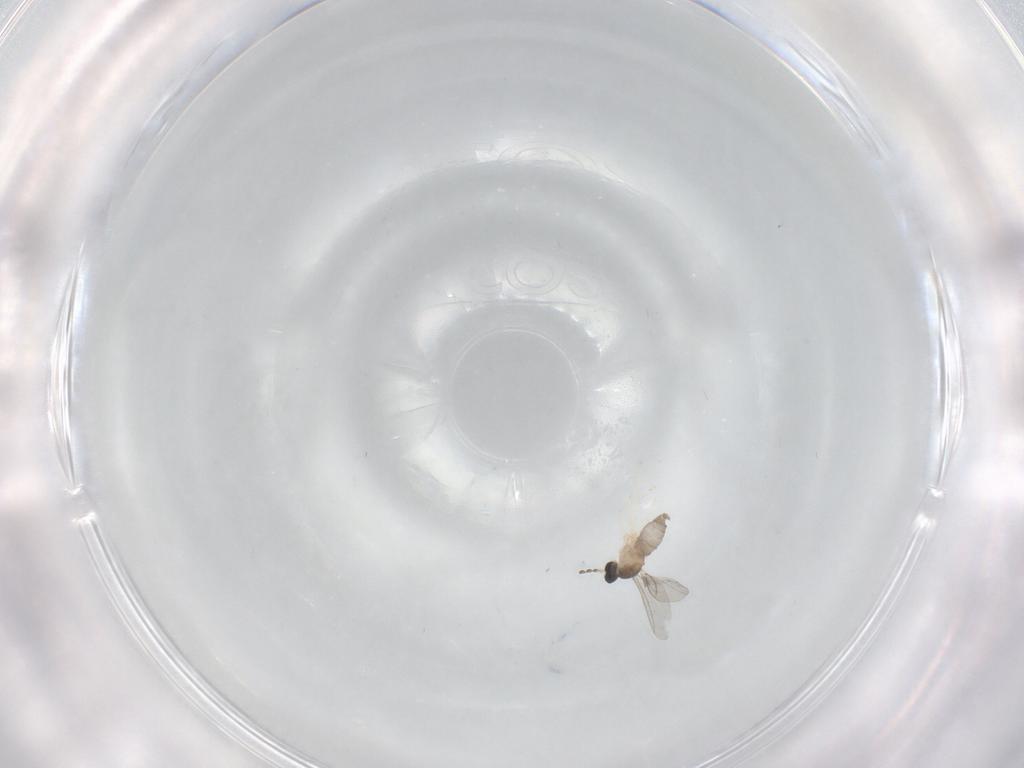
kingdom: Animalia
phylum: Arthropoda
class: Insecta
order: Diptera
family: Cecidomyiidae
